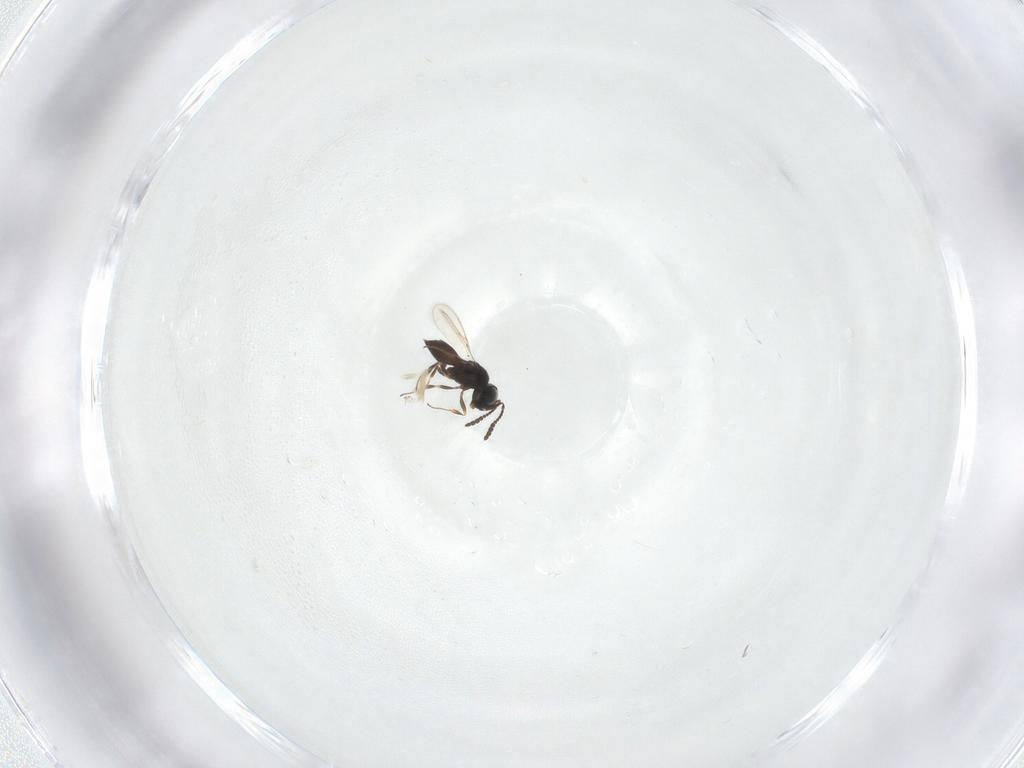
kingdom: Animalia
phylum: Arthropoda
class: Insecta
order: Hymenoptera
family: Scelionidae
